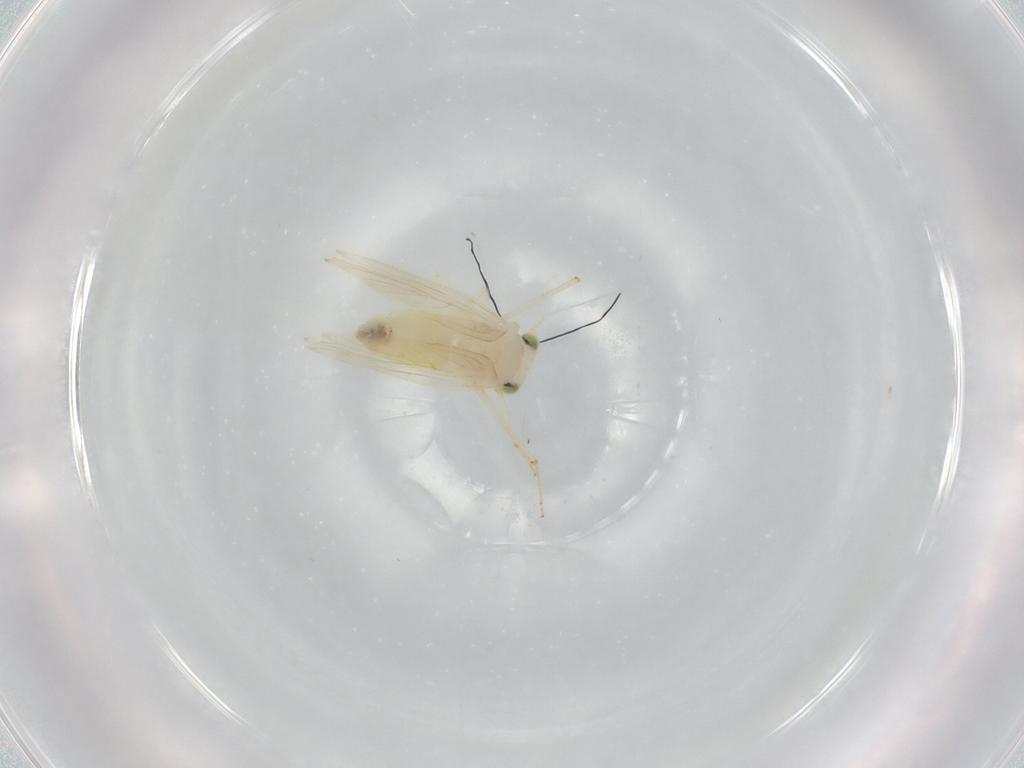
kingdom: Animalia
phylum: Arthropoda
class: Insecta
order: Psocodea
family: Lepidopsocidae
